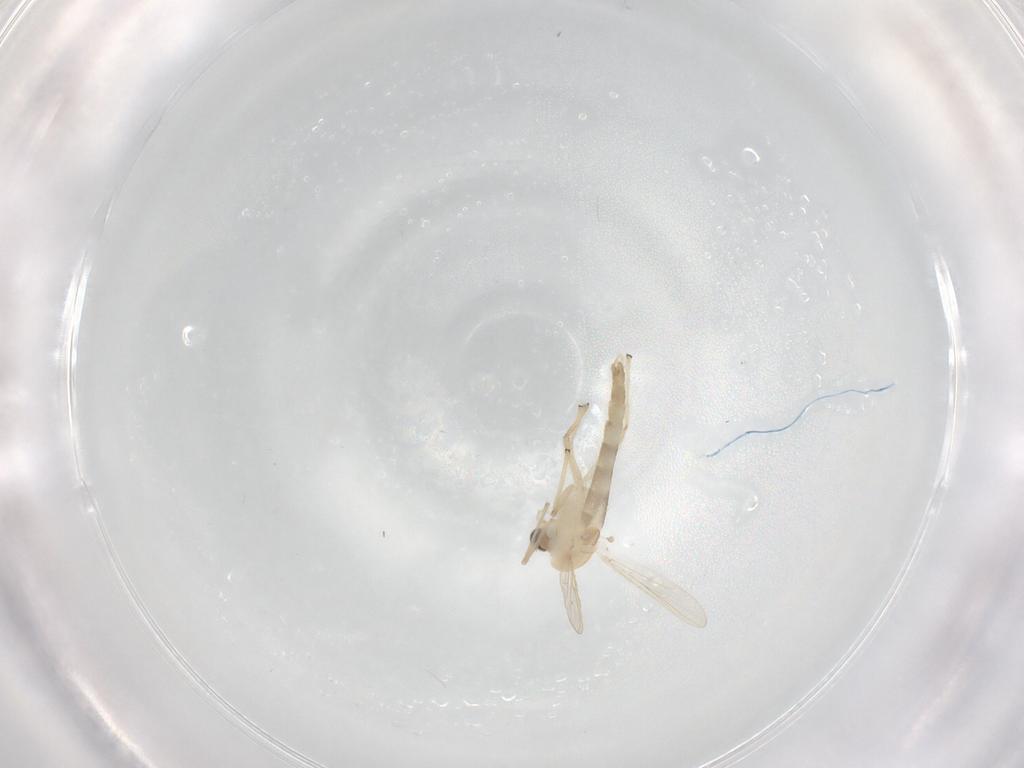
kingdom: Animalia
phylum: Arthropoda
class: Insecta
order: Diptera
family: Chironomidae
